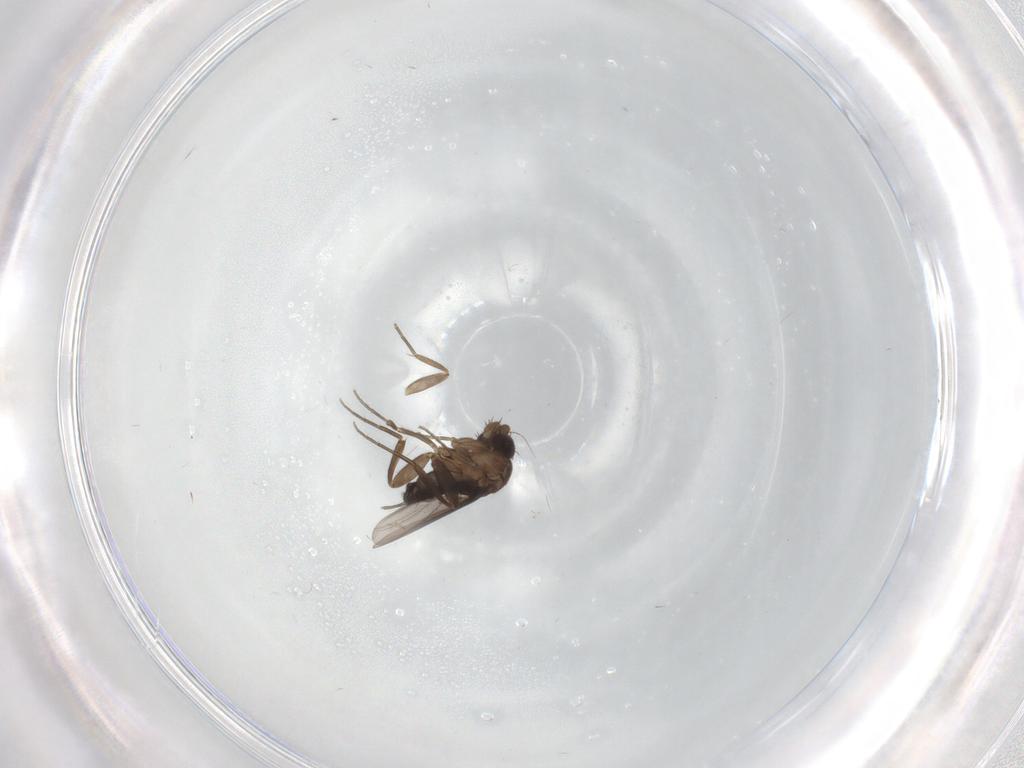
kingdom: Animalia
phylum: Arthropoda
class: Insecta
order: Diptera
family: Phoridae
